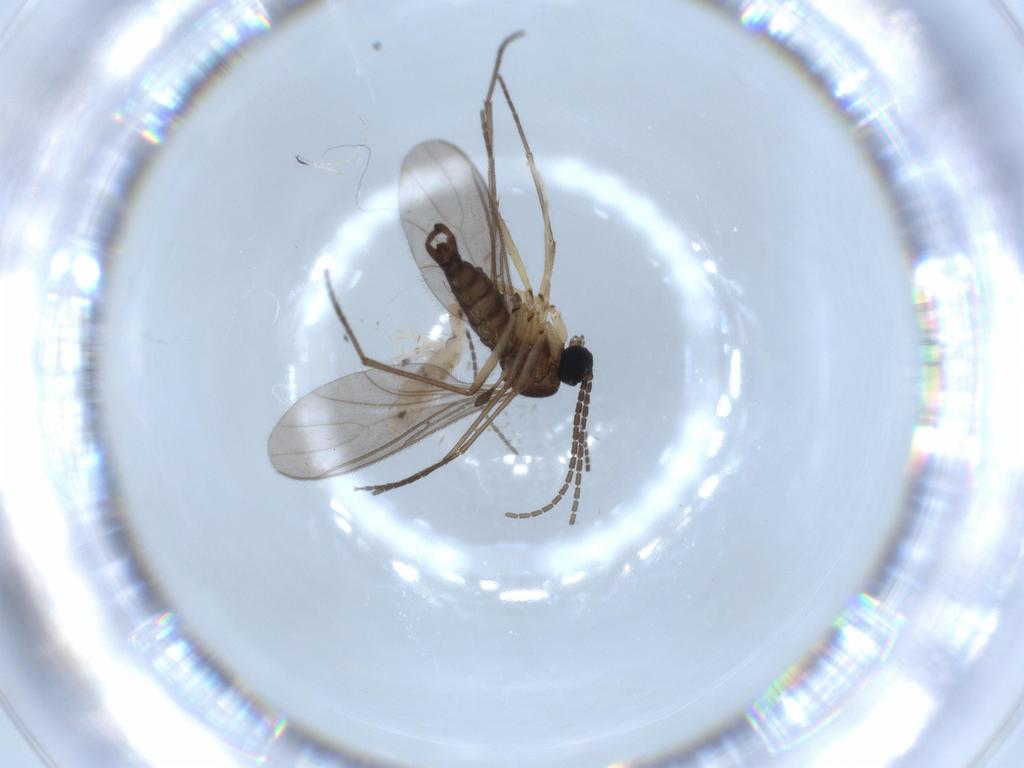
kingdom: Animalia
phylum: Arthropoda
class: Collembola
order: Entomobryomorpha
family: Entomobryidae
